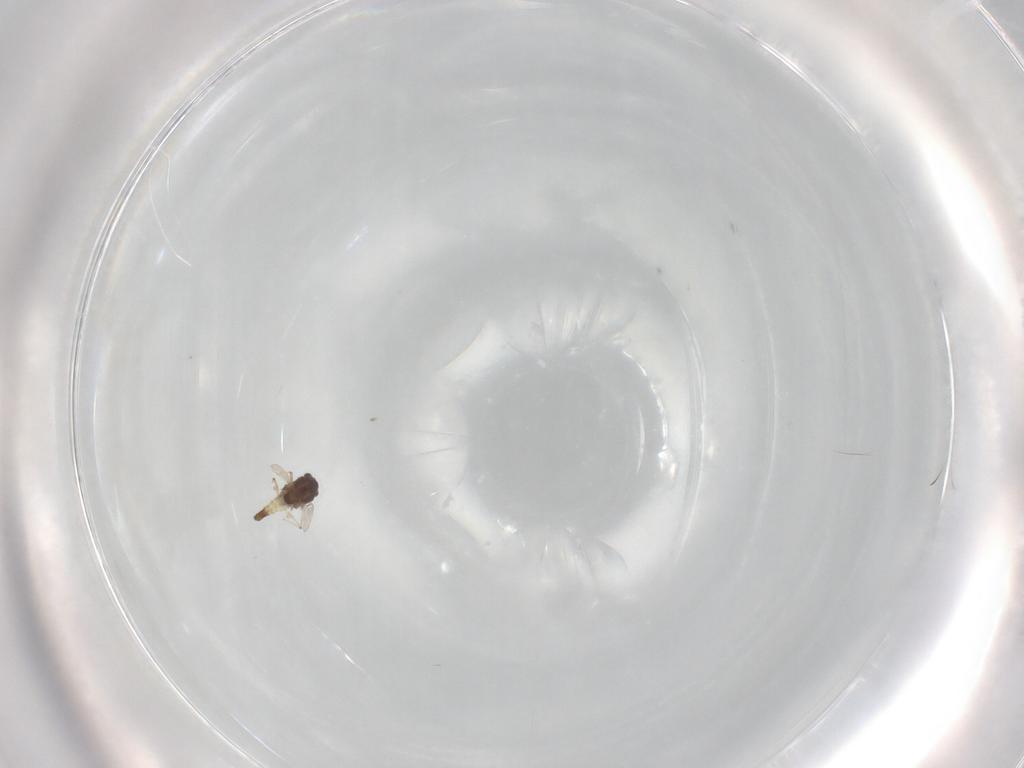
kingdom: Animalia
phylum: Arthropoda
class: Insecta
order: Diptera
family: Chironomidae
